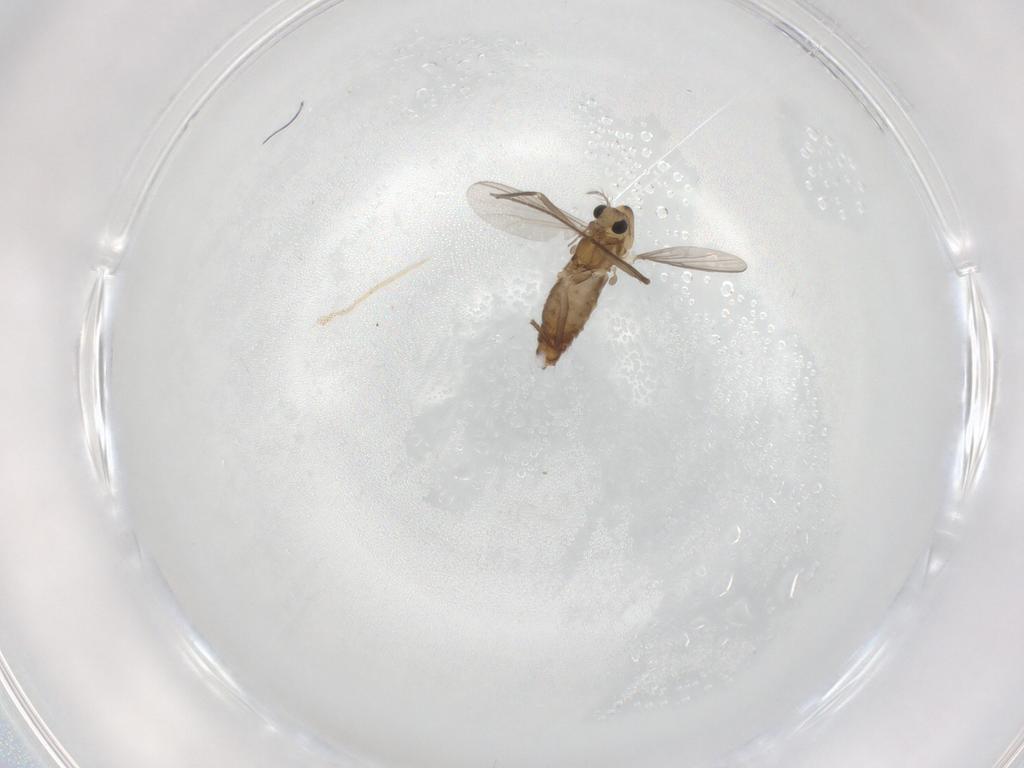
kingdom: Animalia
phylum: Arthropoda
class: Insecta
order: Diptera
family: Chironomidae
